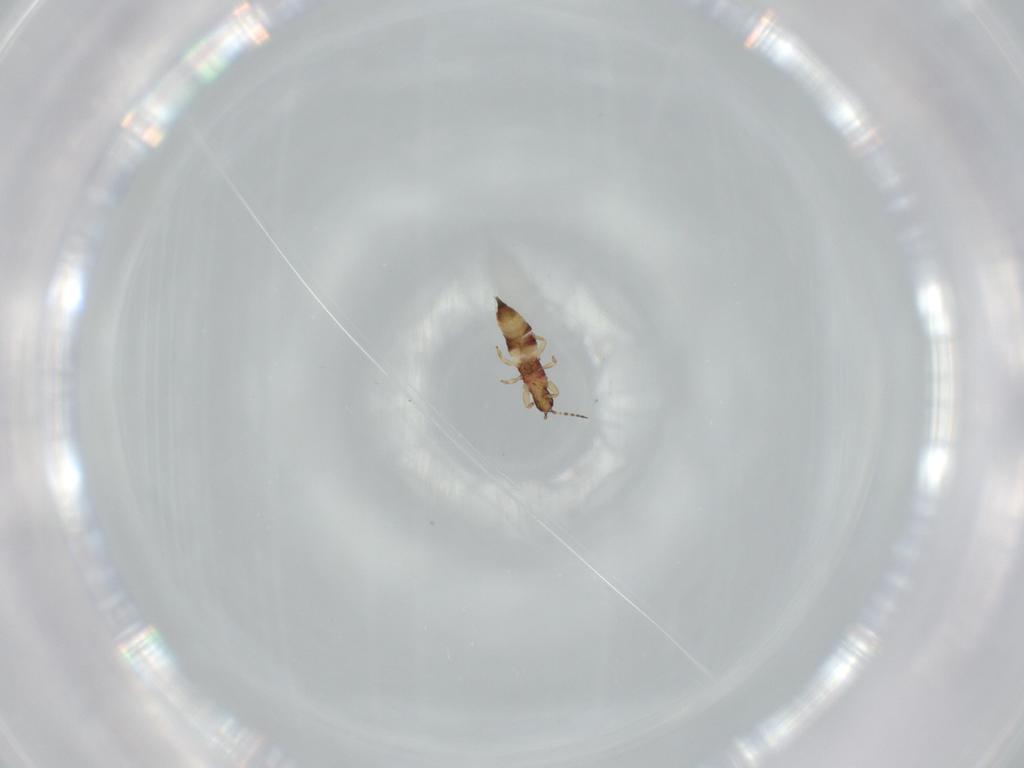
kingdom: Animalia
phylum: Arthropoda
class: Insecta
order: Thysanoptera
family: Phlaeothripidae
